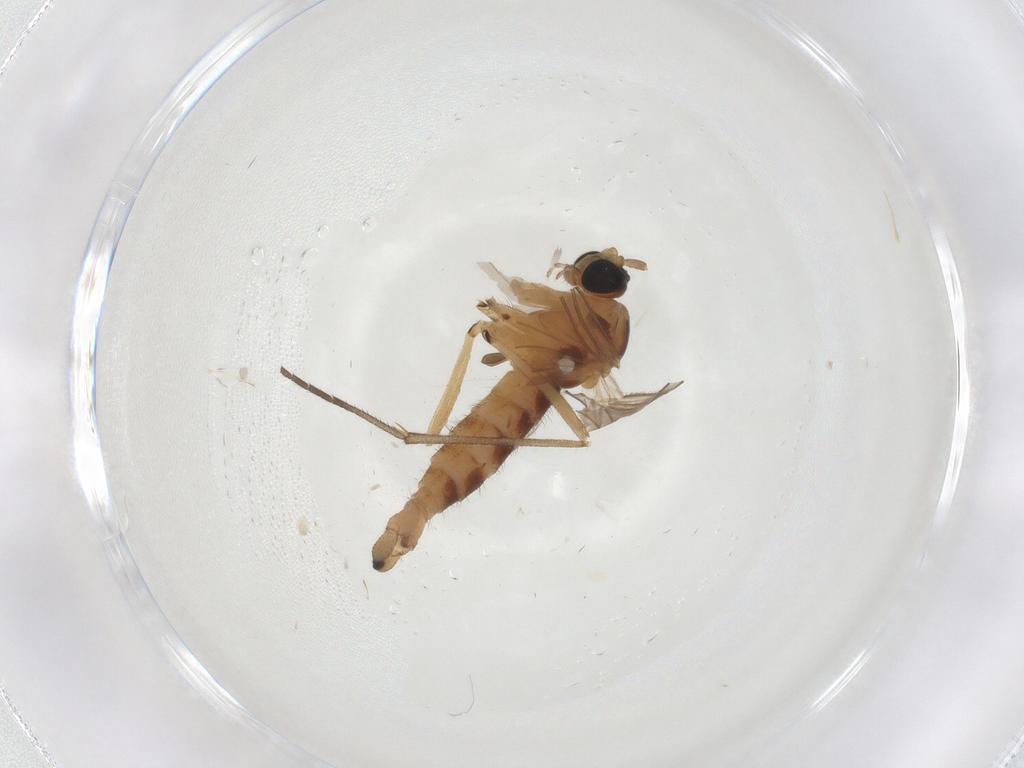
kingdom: Animalia
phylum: Arthropoda
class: Insecta
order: Diptera
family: Sciaridae
